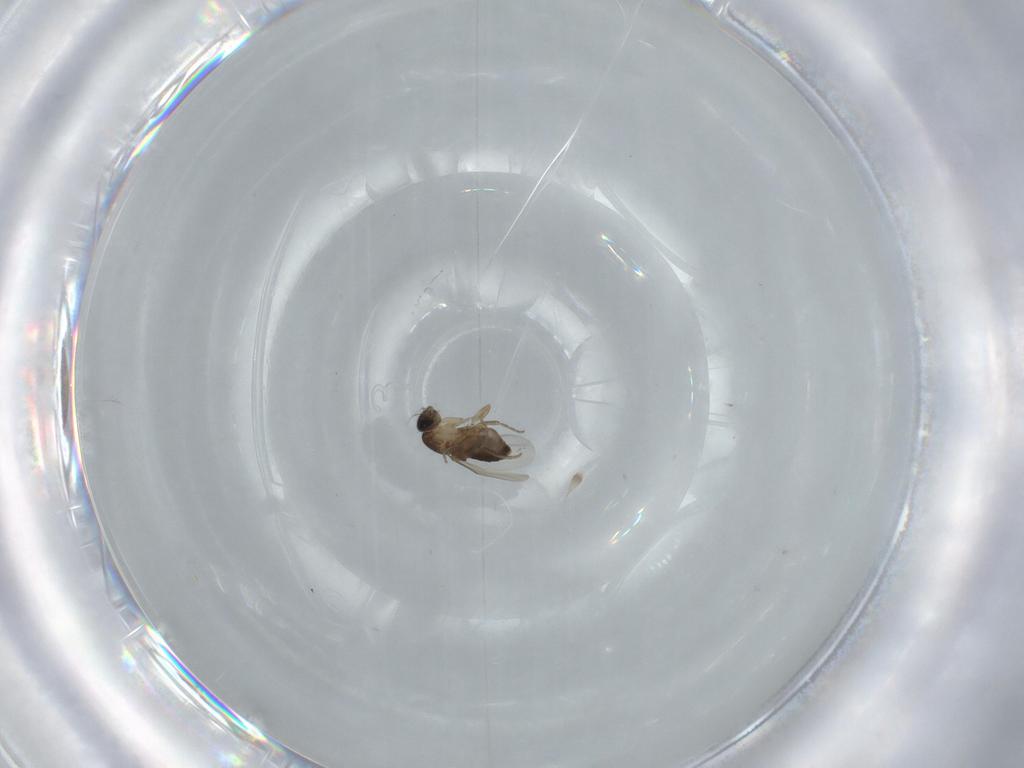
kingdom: Animalia
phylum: Arthropoda
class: Insecta
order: Diptera
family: Phoridae
